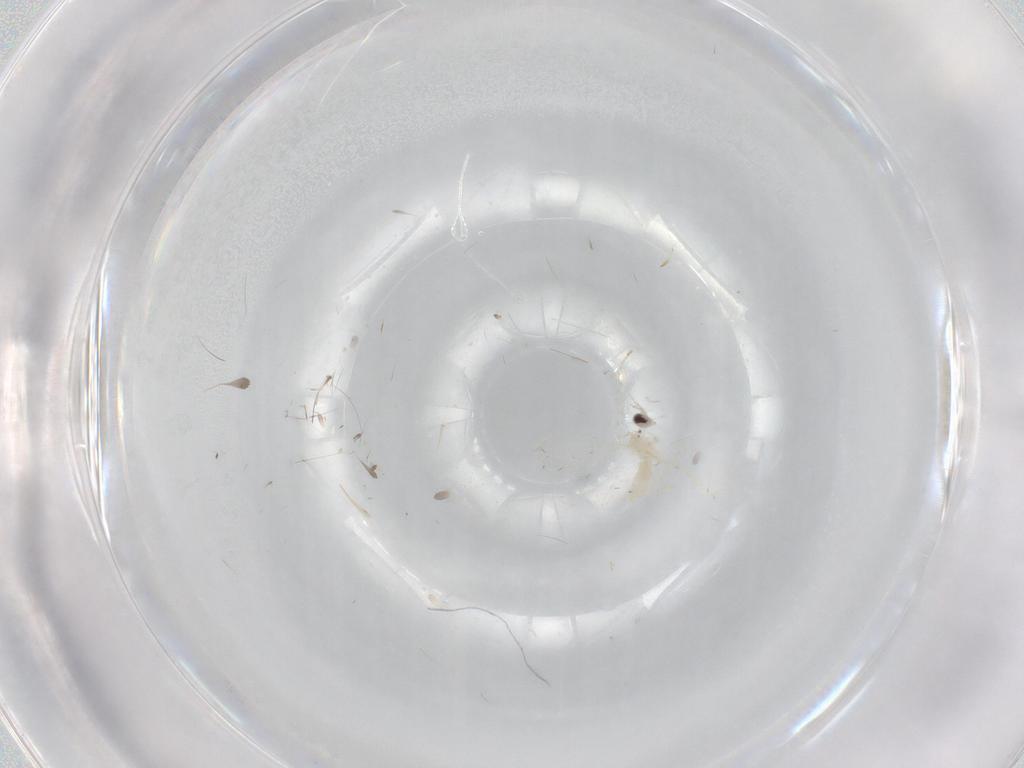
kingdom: Animalia
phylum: Arthropoda
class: Insecta
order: Diptera
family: Cecidomyiidae
